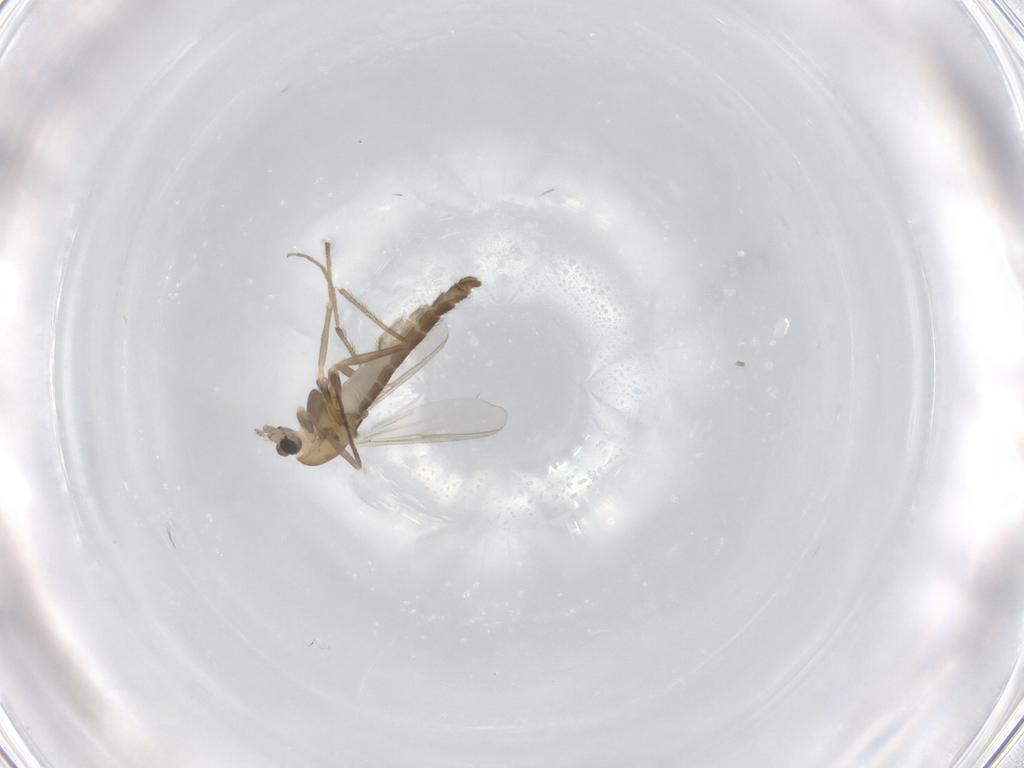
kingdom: Animalia
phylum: Arthropoda
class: Insecta
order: Diptera
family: Chironomidae
